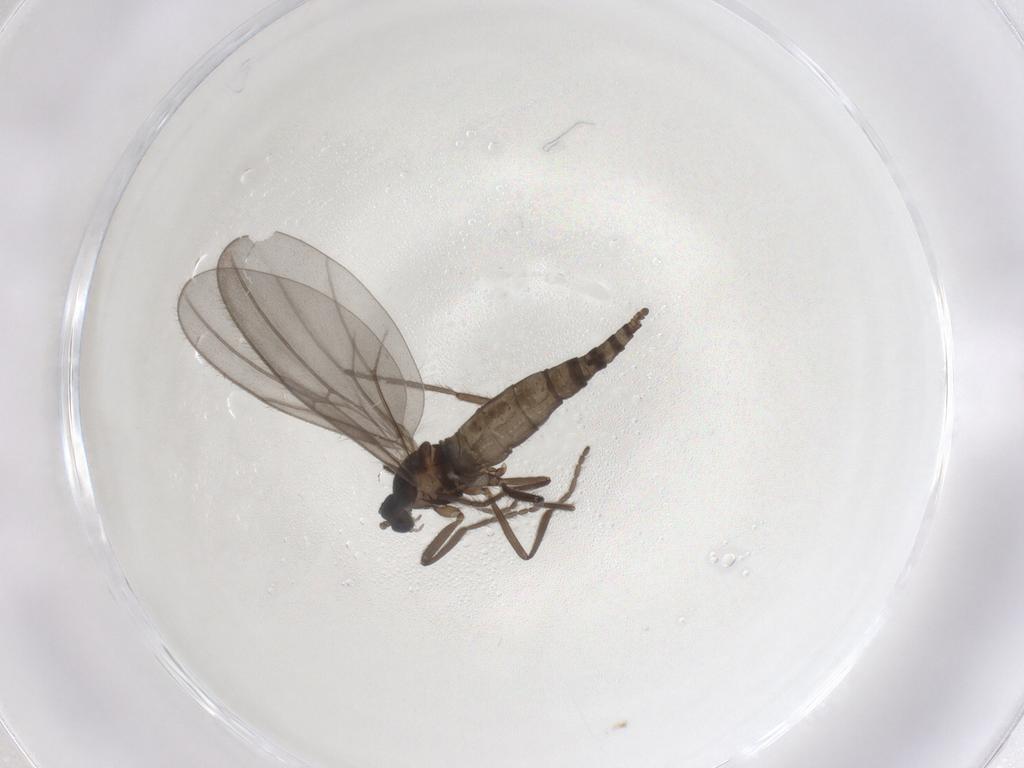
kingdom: Animalia
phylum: Arthropoda
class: Insecta
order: Diptera
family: Cecidomyiidae
